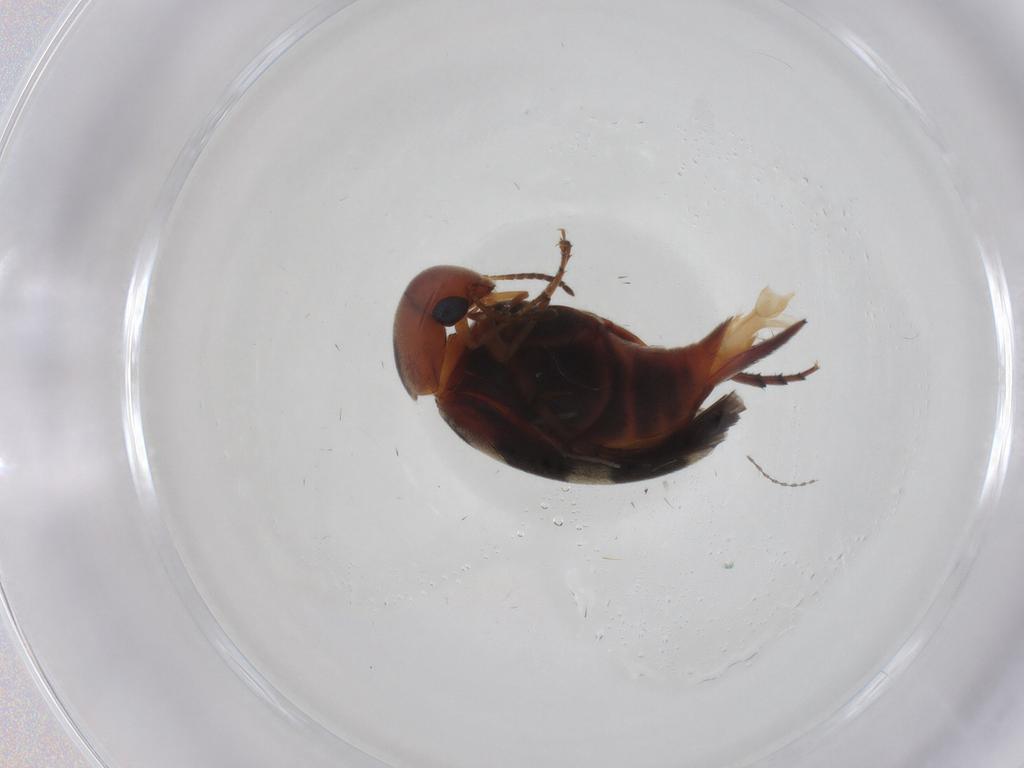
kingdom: Animalia
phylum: Arthropoda
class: Insecta
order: Coleoptera
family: Mordellidae
